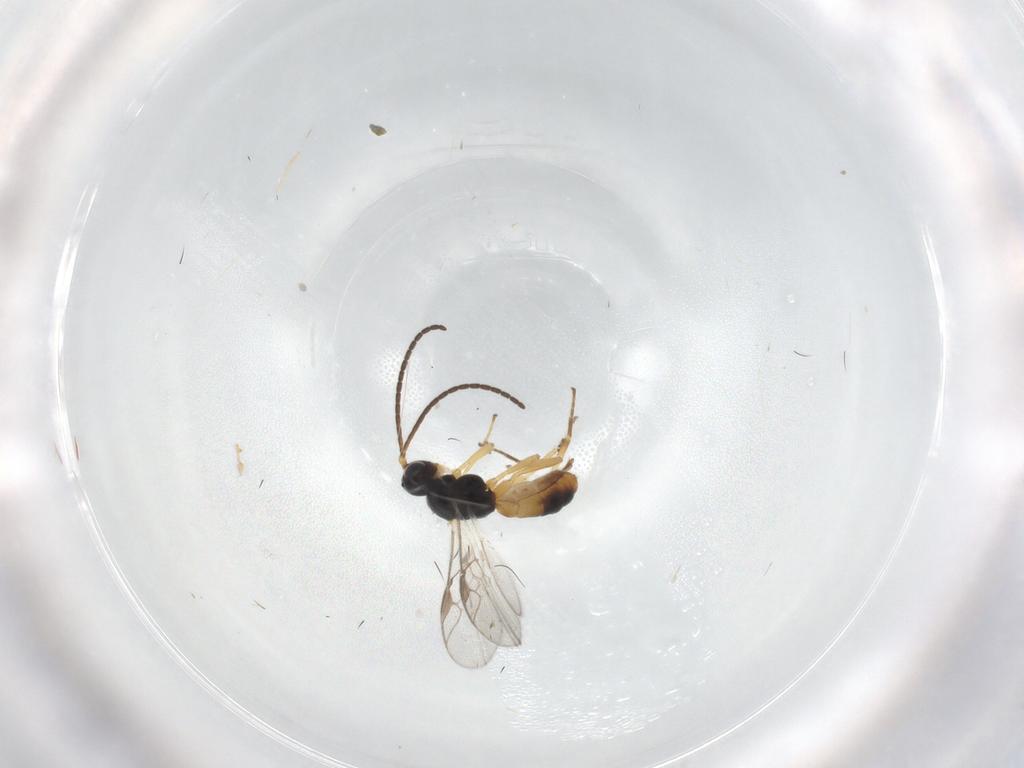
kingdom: Animalia
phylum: Arthropoda
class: Insecta
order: Hymenoptera
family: Braconidae
